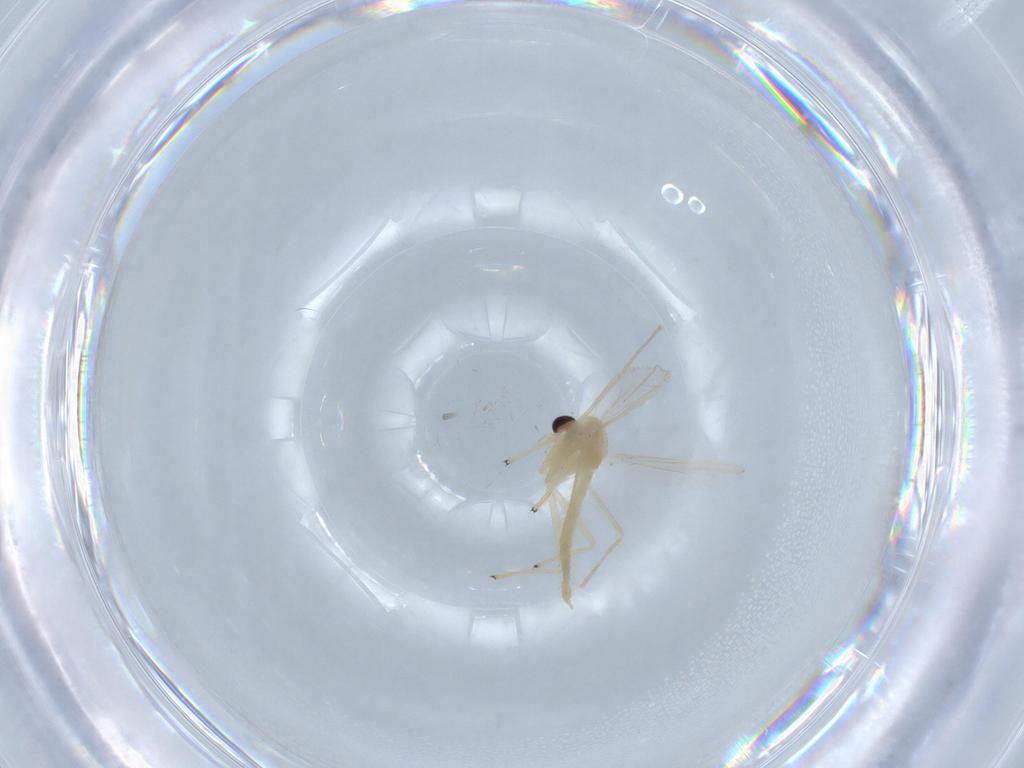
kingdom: Animalia
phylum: Arthropoda
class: Insecta
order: Diptera
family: Chironomidae
